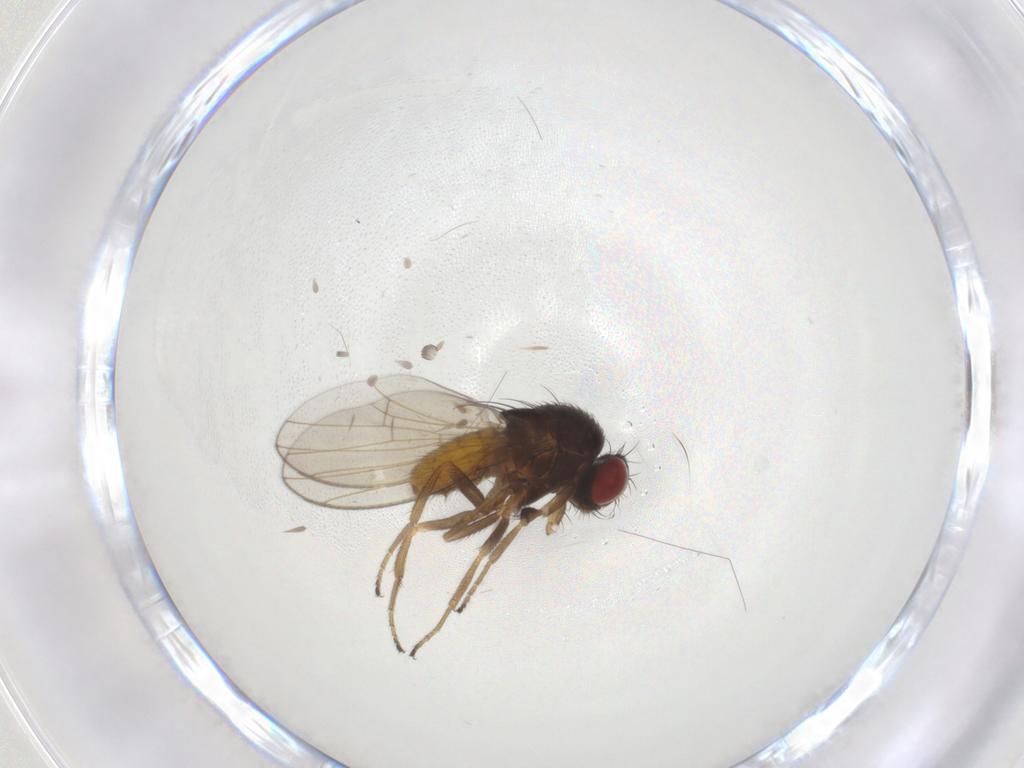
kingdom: Animalia
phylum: Arthropoda
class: Insecta
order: Diptera
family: Drosophilidae
